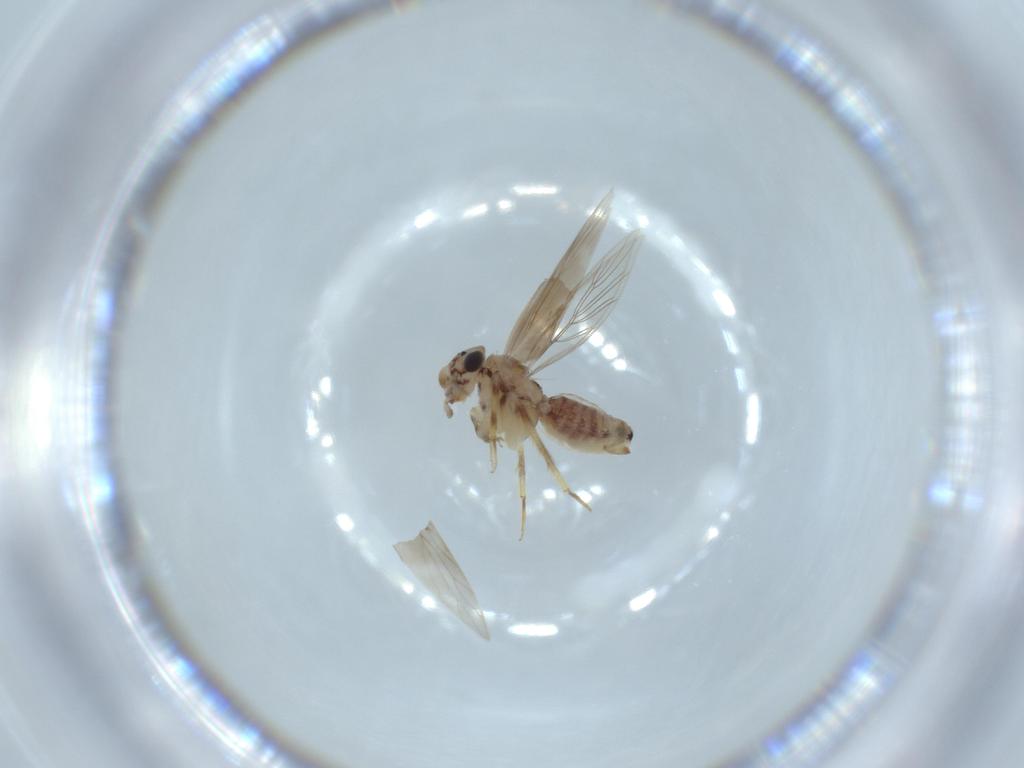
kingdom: Animalia
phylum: Arthropoda
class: Insecta
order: Psocodea
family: Lepidopsocidae
